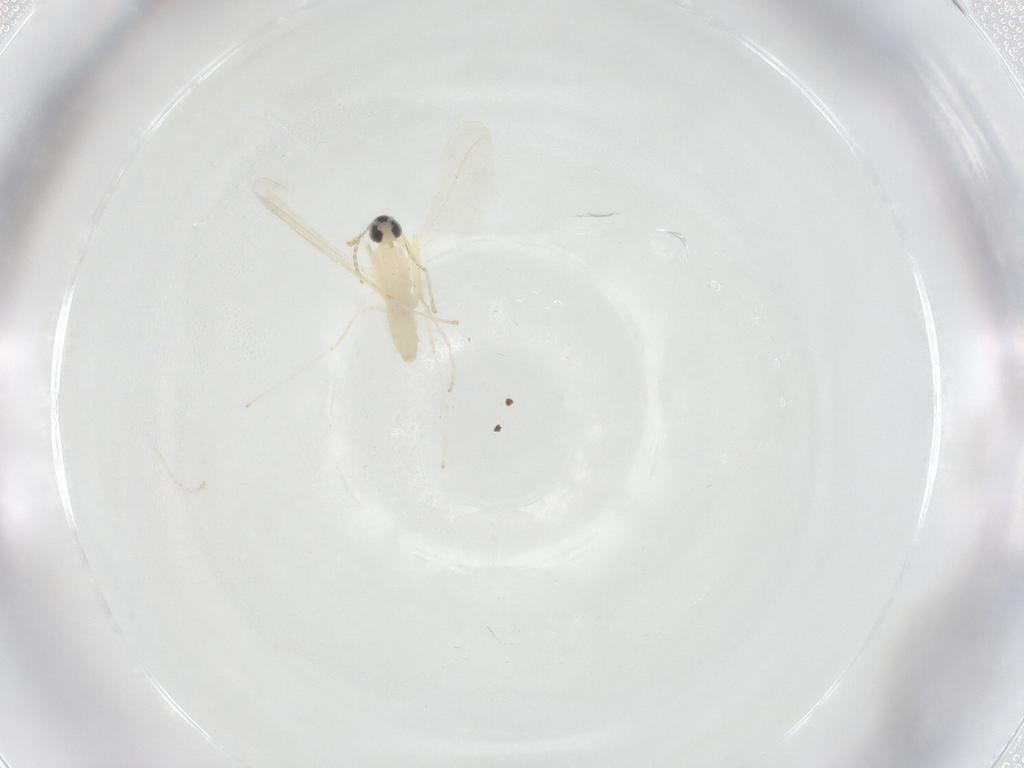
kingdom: Animalia
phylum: Arthropoda
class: Insecta
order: Diptera
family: Cecidomyiidae
